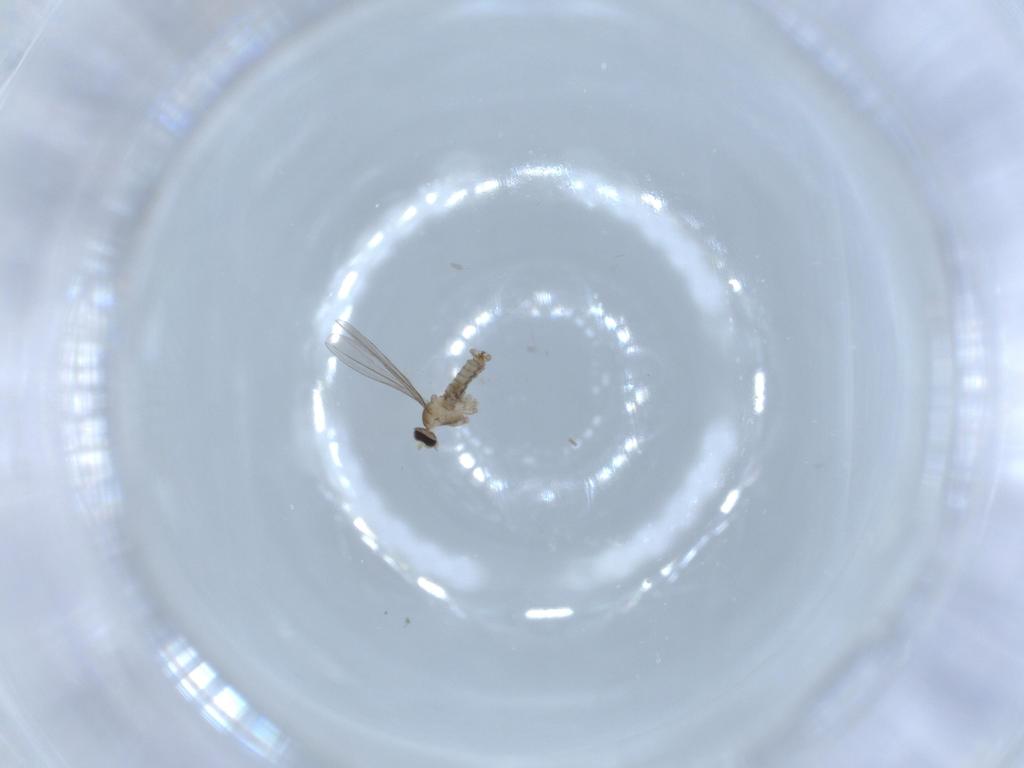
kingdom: Animalia
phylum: Arthropoda
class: Insecta
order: Diptera
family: Cecidomyiidae
